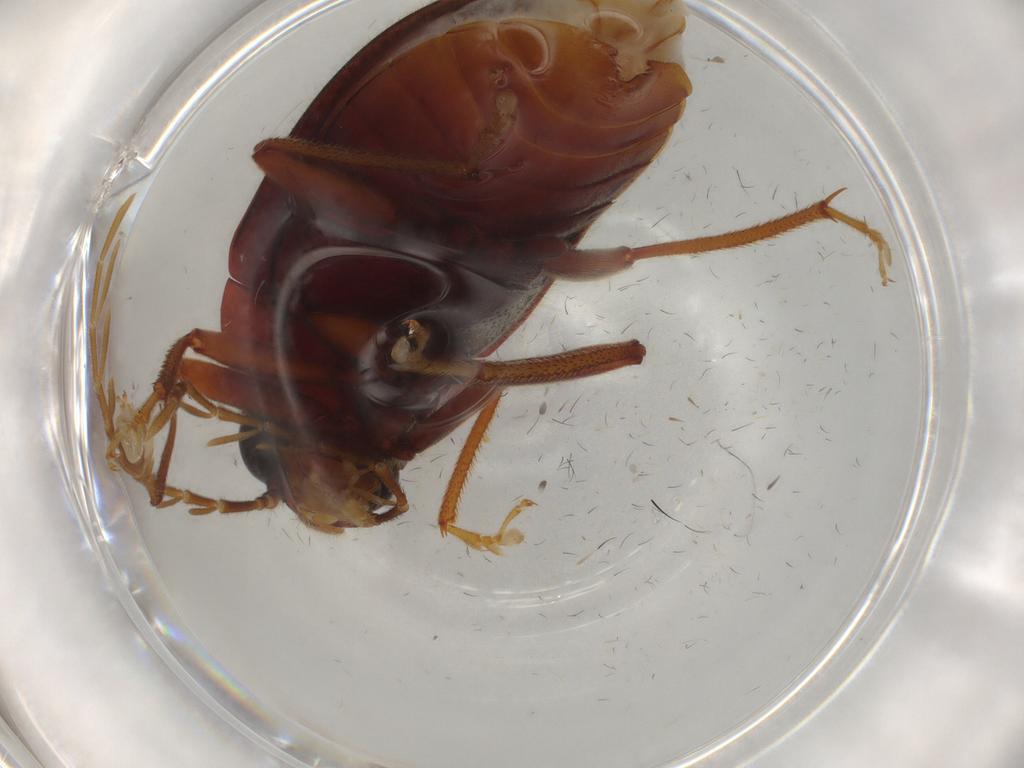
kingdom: Animalia
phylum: Arthropoda
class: Insecta
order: Coleoptera
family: Ptilodactylidae
